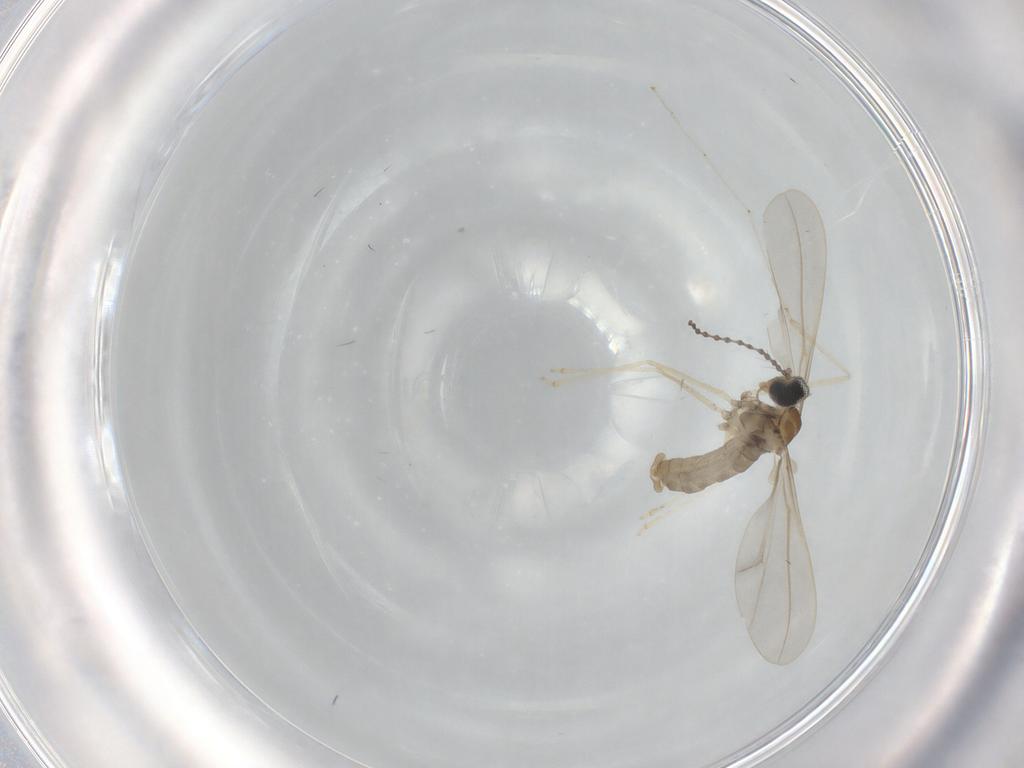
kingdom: Animalia
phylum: Arthropoda
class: Insecta
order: Diptera
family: Cecidomyiidae
